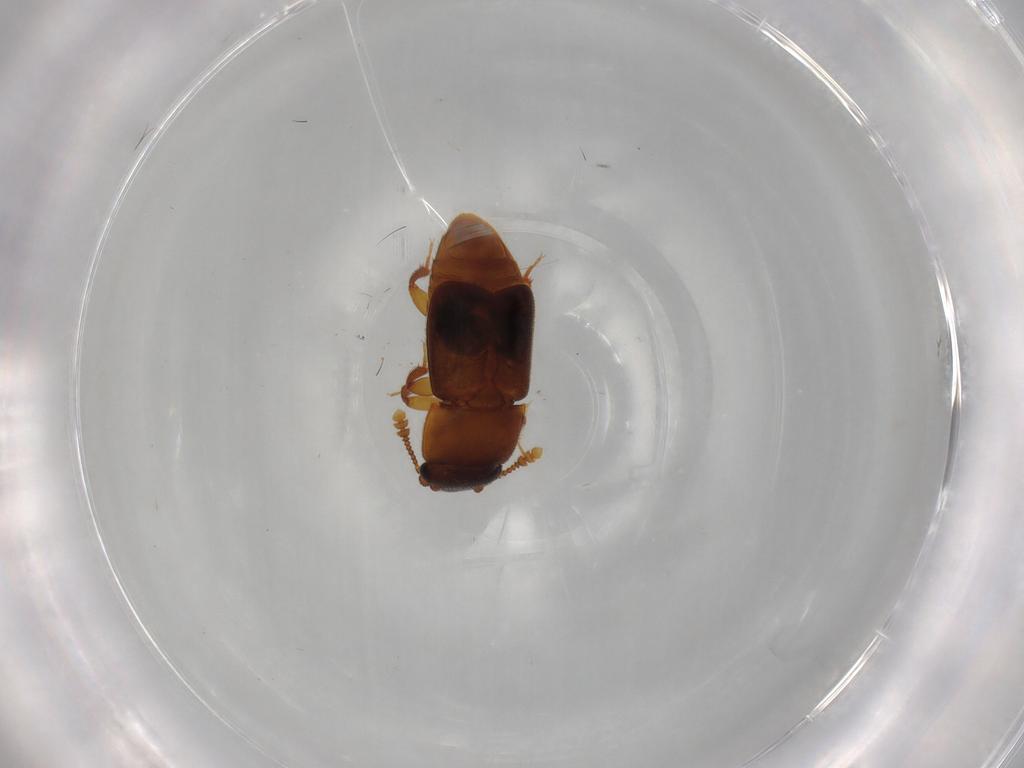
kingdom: Animalia
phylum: Arthropoda
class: Insecta
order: Coleoptera
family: Nitidulidae
